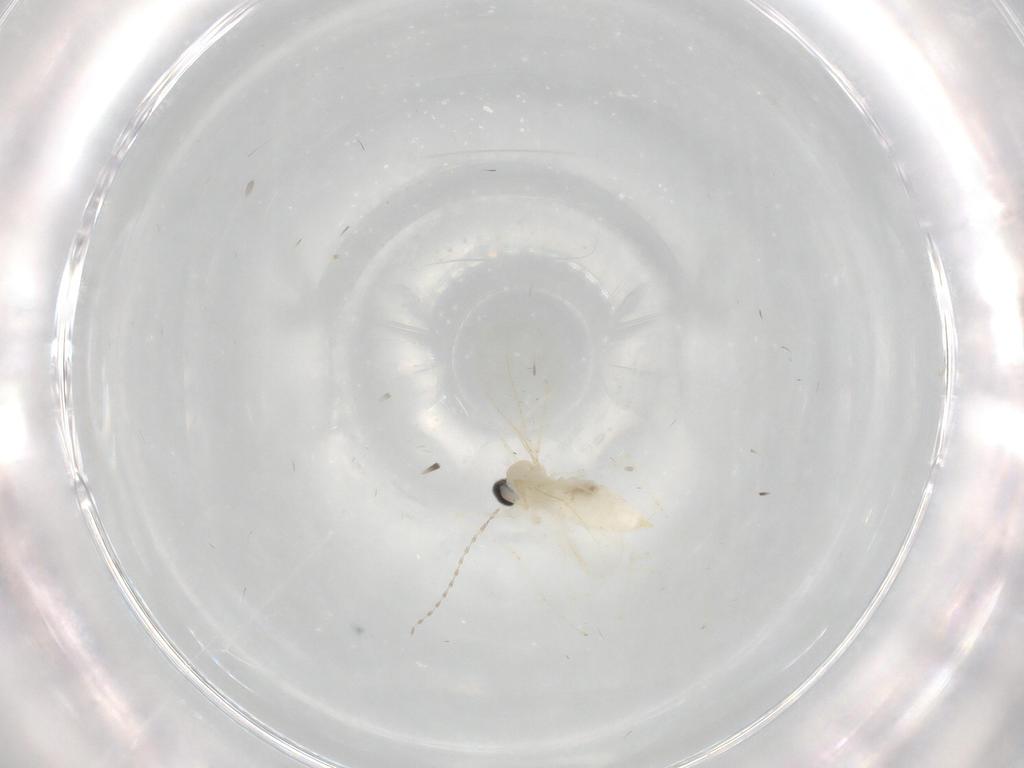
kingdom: Animalia
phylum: Arthropoda
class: Insecta
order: Diptera
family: Cecidomyiidae
